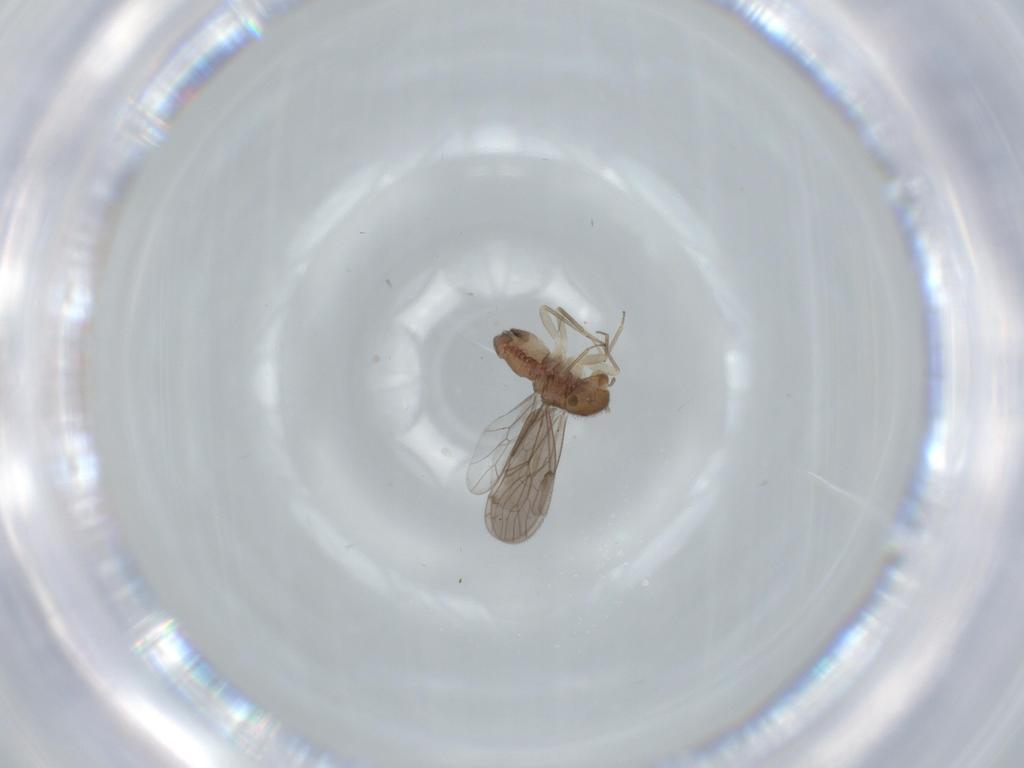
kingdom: Animalia
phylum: Arthropoda
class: Insecta
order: Psocodea
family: Ectopsocidae
